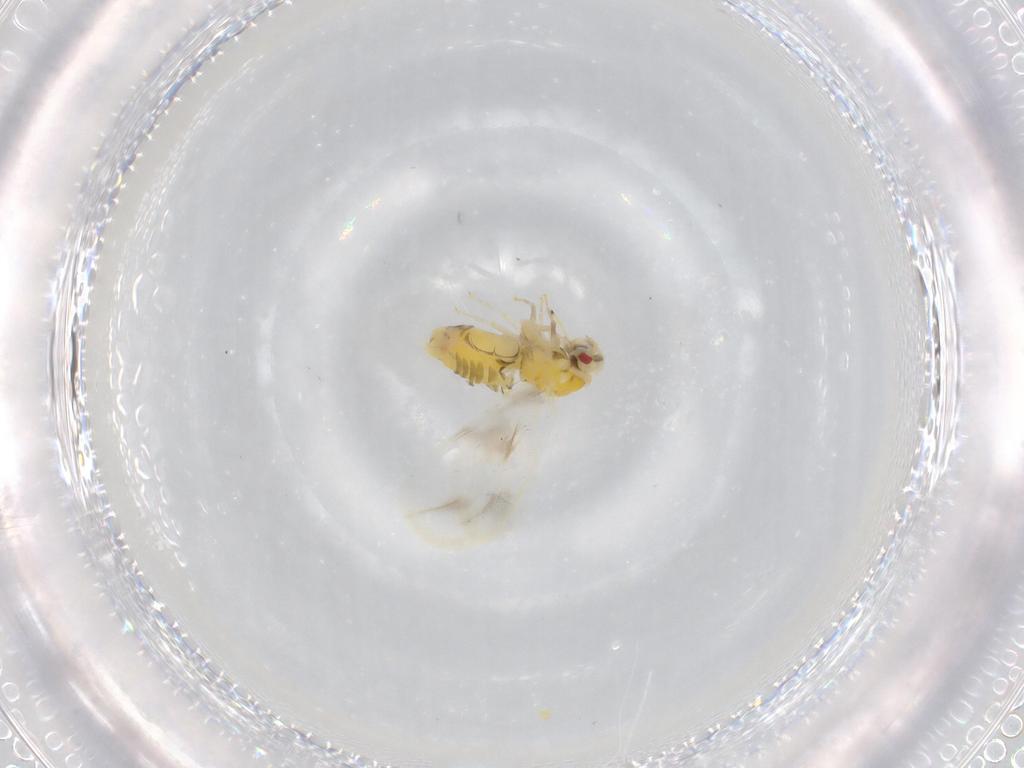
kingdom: Animalia
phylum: Arthropoda
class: Insecta
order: Hemiptera
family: Aleyrodidae
